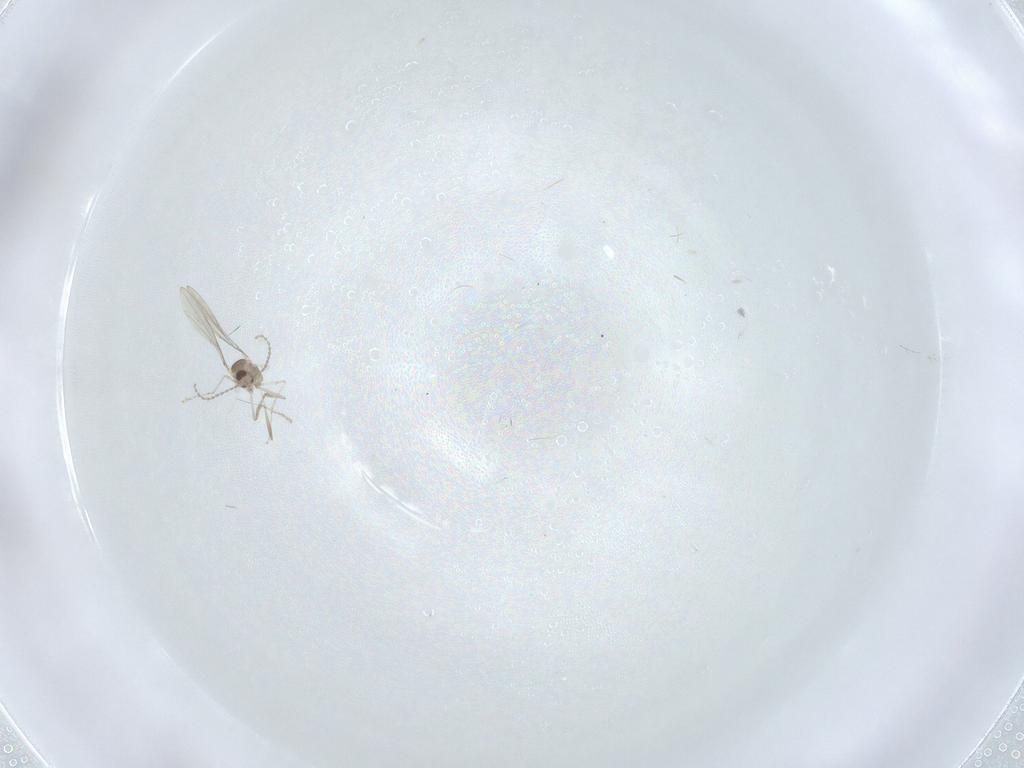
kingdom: Animalia
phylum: Arthropoda
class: Insecta
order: Diptera
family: Cecidomyiidae
